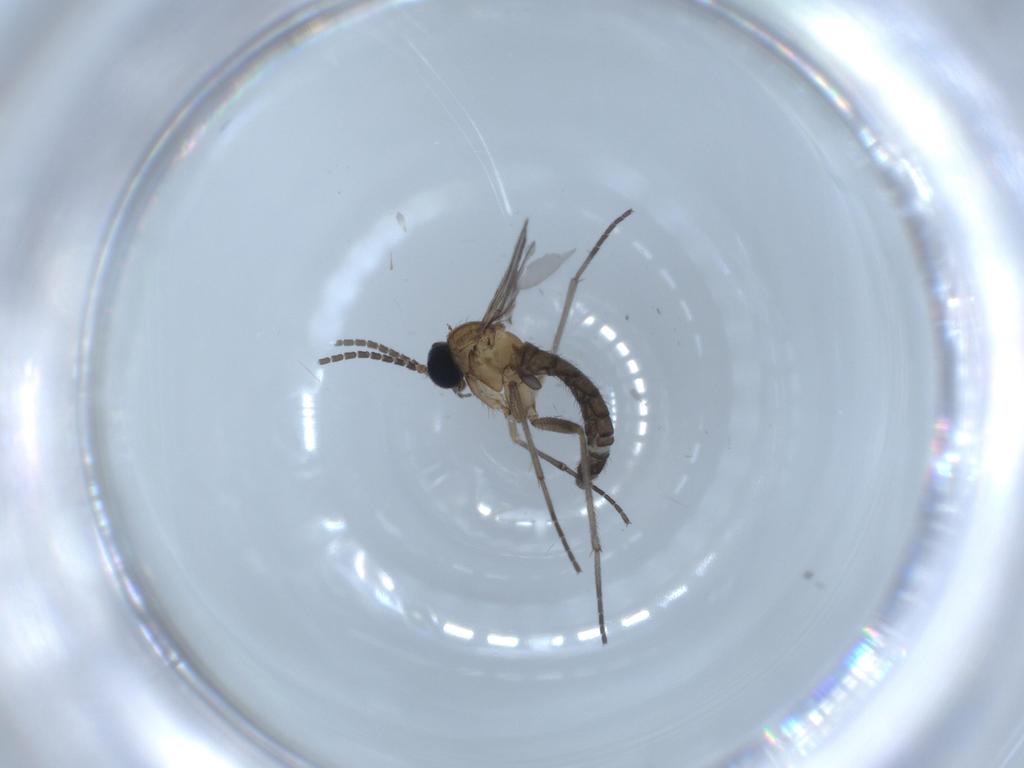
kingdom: Animalia
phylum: Arthropoda
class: Insecta
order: Diptera
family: Sciaridae
